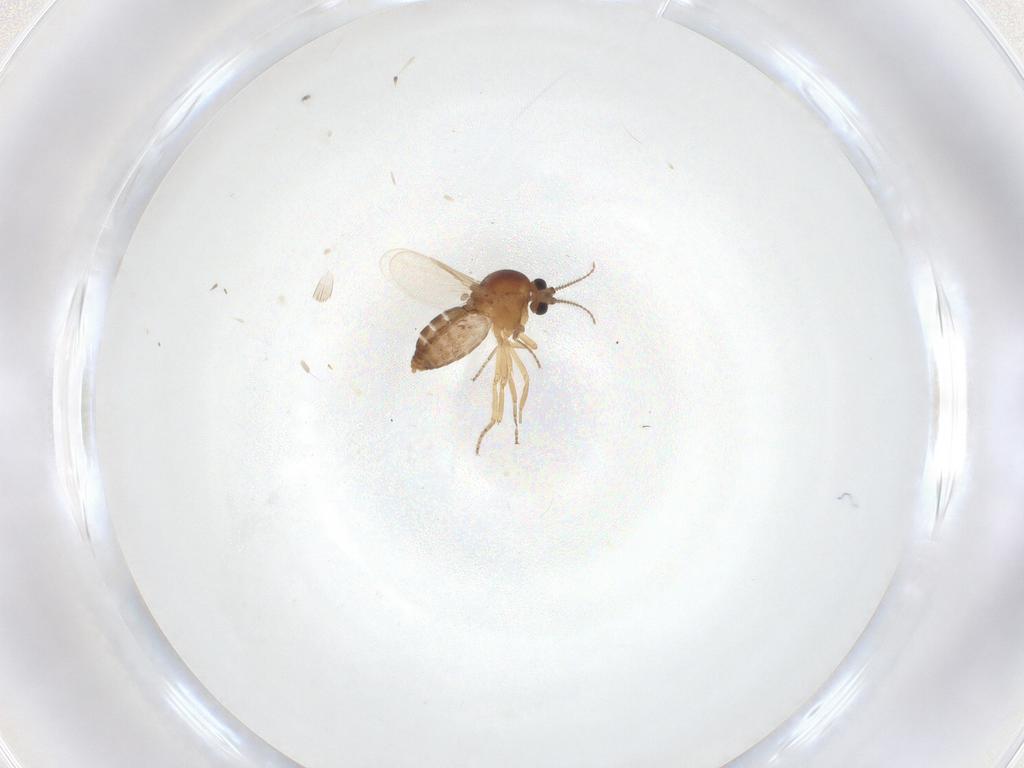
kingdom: Animalia
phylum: Arthropoda
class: Insecta
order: Diptera
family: Ceratopogonidae
